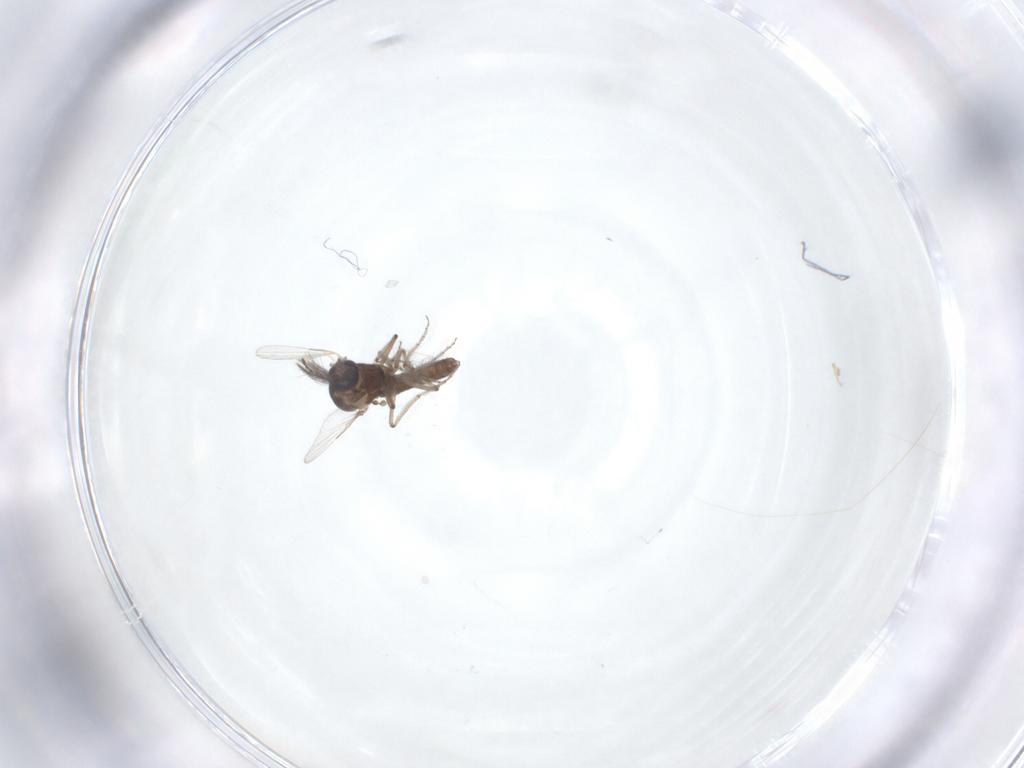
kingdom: Animalia
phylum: Arthropoda
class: Insecta
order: Diptera
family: Ceratopogonidae
